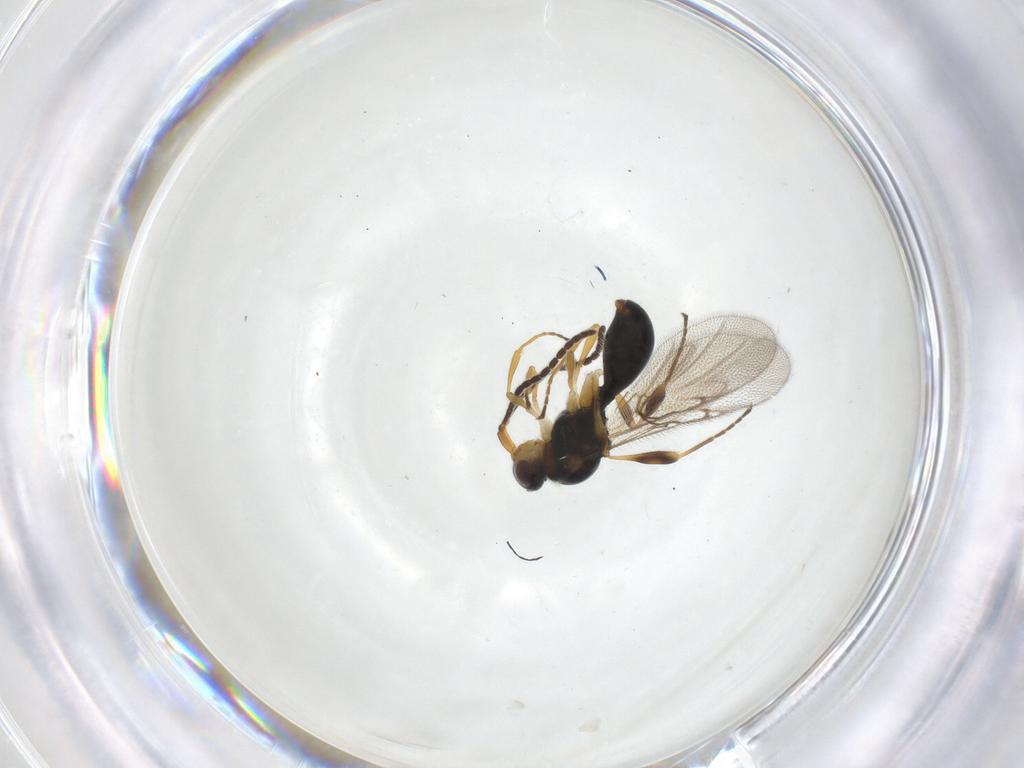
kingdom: Animalia
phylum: Arthropoda
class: Insecta
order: Hymenoptera
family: Diapriidae
